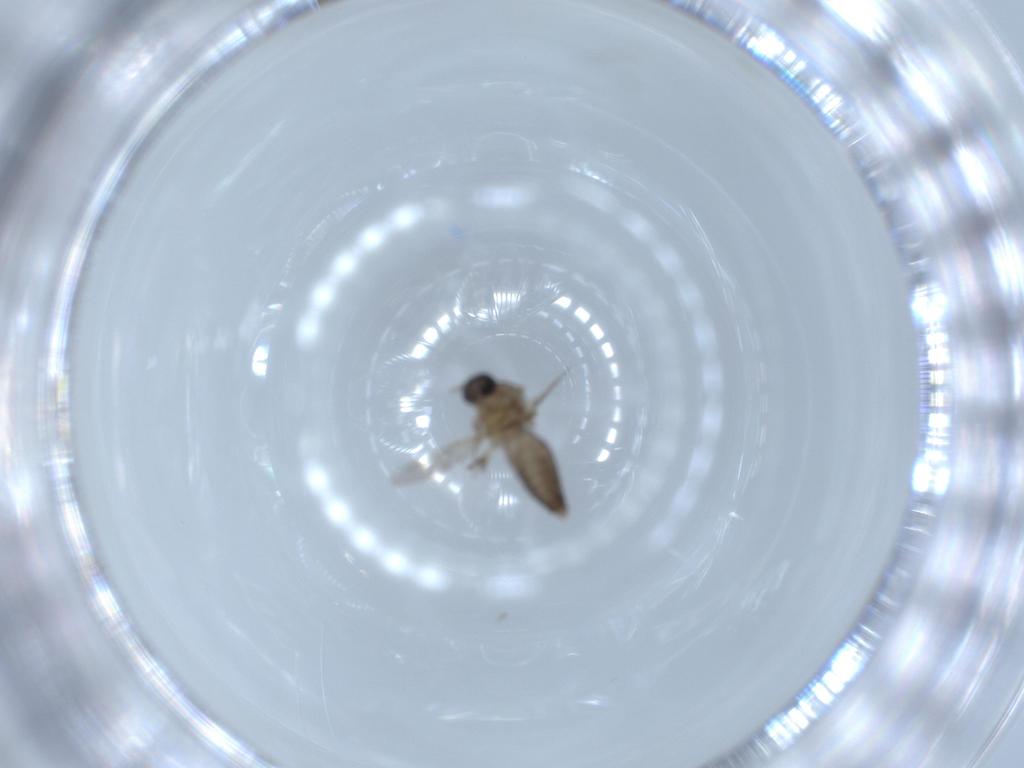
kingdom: Animalia
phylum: Arthropoda
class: Insecta
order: Diptera
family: Ceratopogonidae
